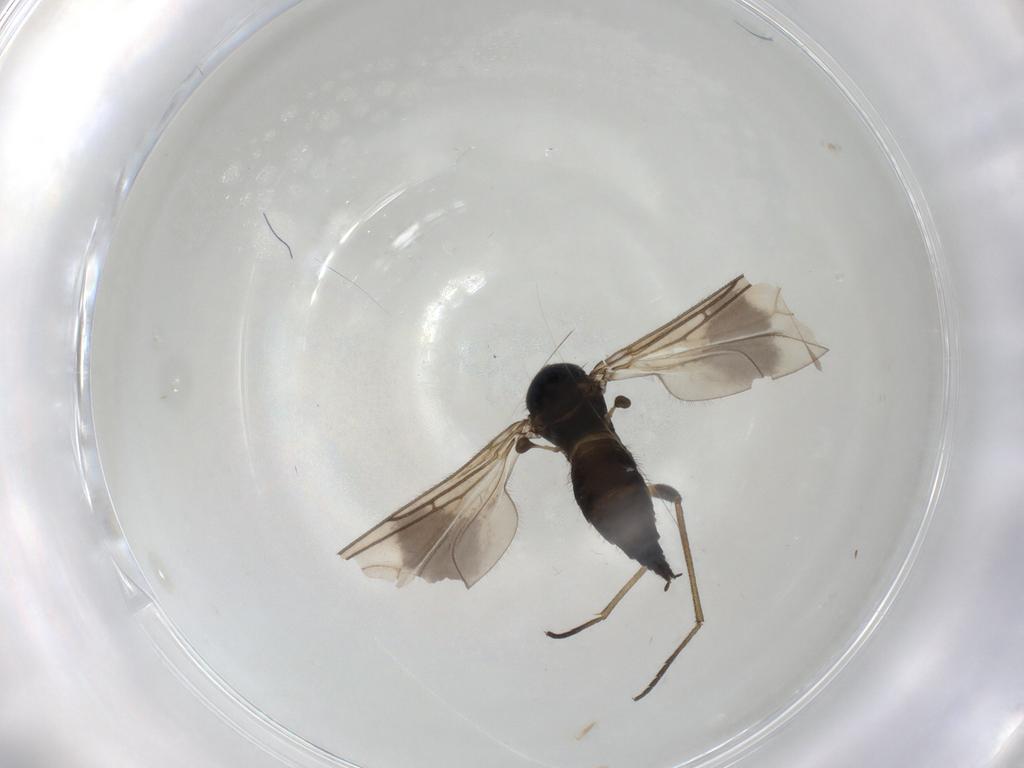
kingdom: Animalia
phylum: Arthropoda
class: Insecta
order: Diptera
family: Sciaridae
